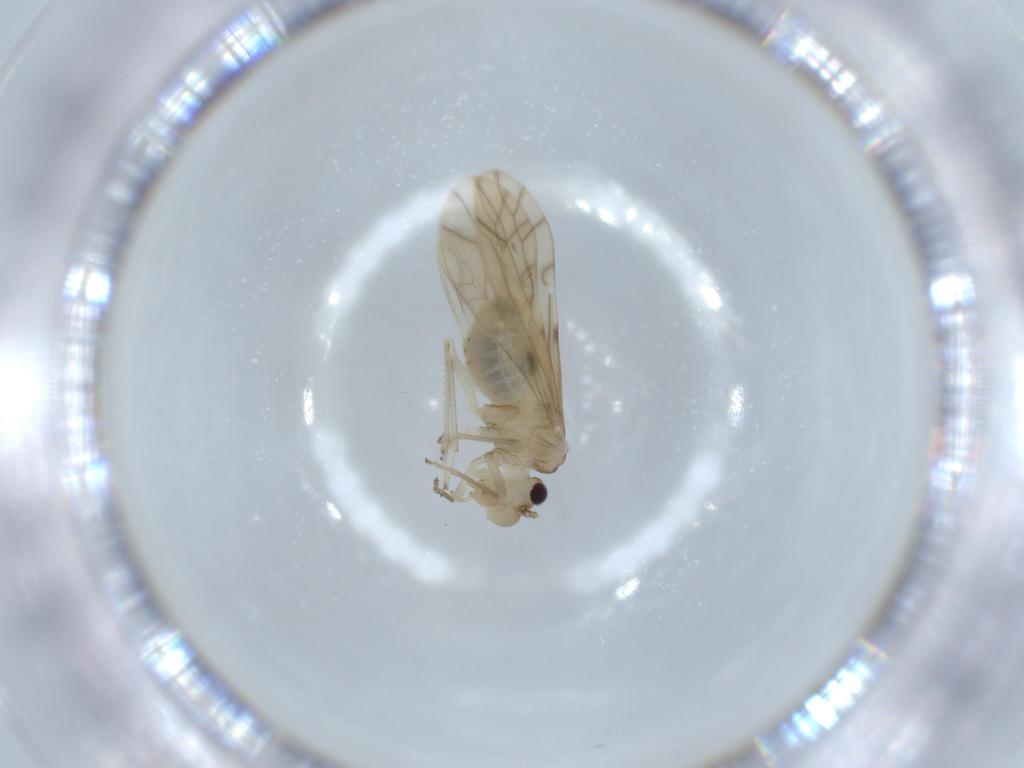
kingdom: Animalia
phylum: Arthropoda
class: Insecta
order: Psocodea
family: Caeciliusidae
